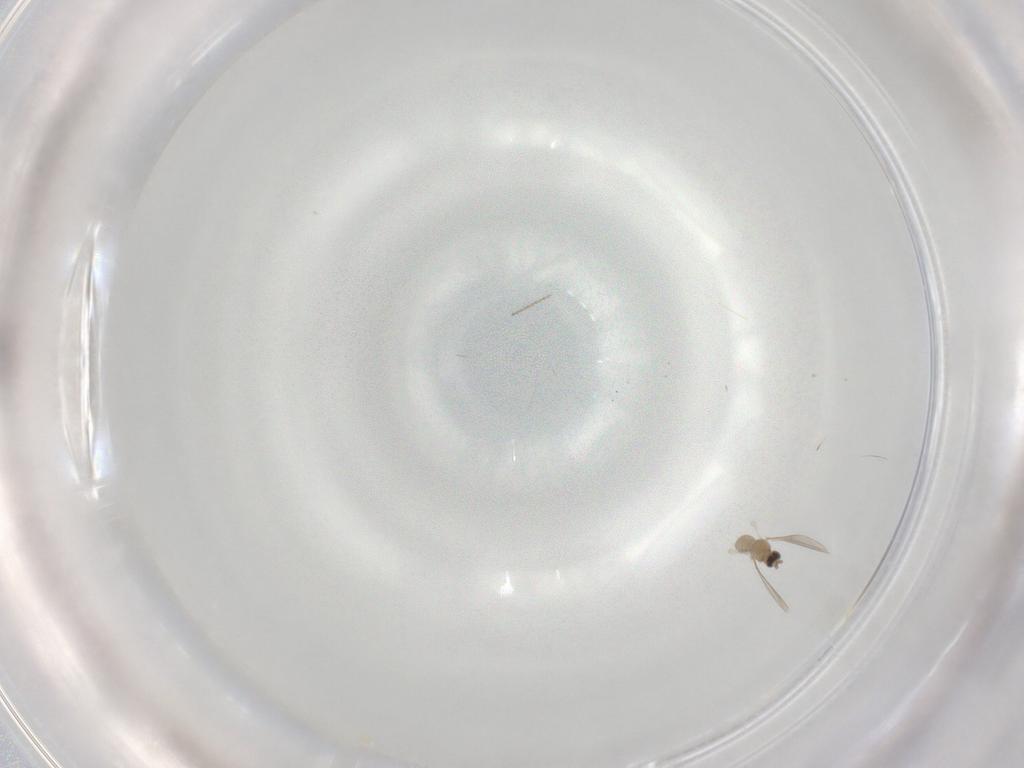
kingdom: Animalia
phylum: Arthropoda
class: Insecta
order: Diptera
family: Cecidomyiidae
